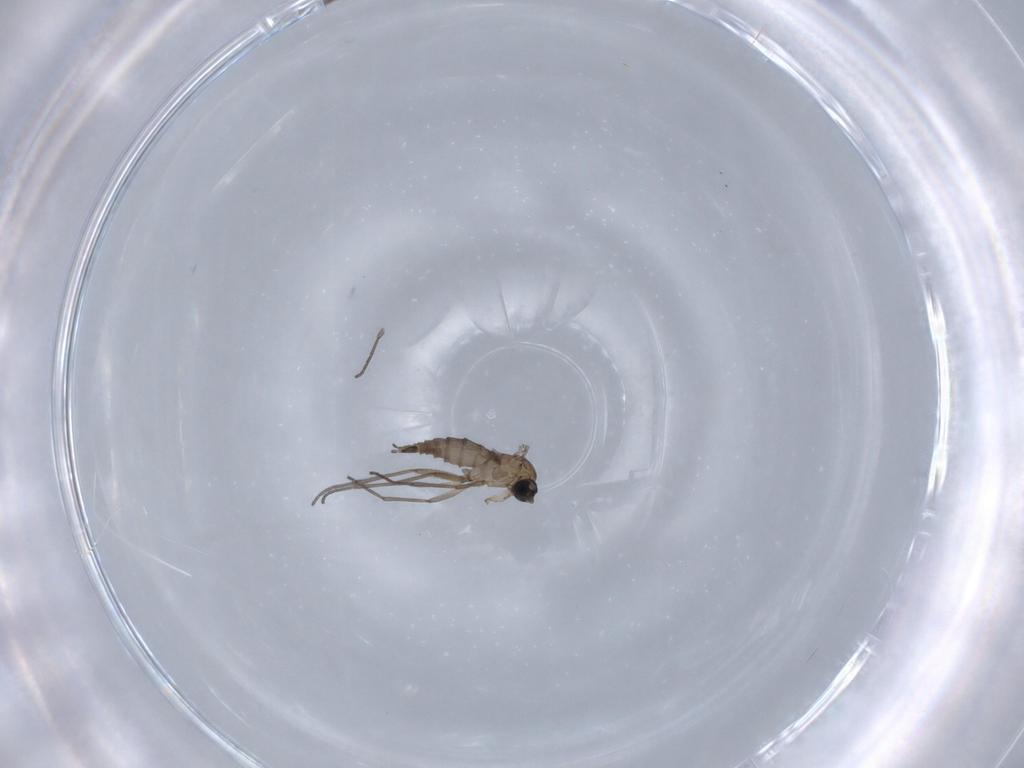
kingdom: Animalia
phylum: Arthropoda
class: Insecta
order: Diptera
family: Sciaridae
